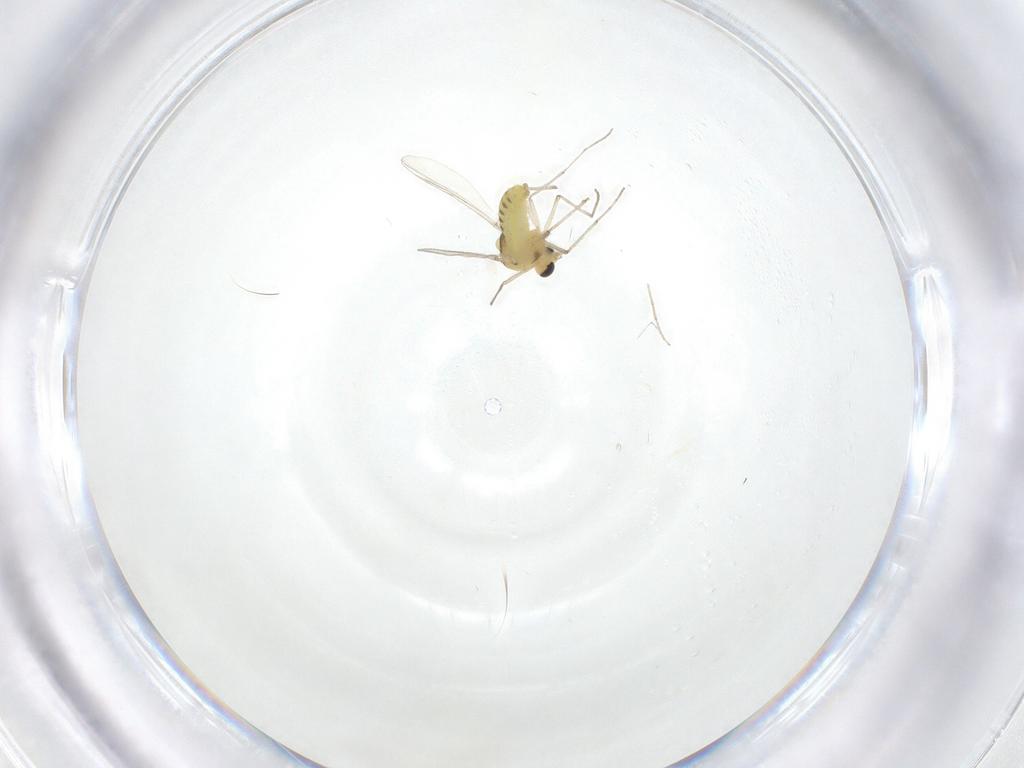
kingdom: Animalia
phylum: Arthropoda
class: Insecta
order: Diptera
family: Chironomidae
